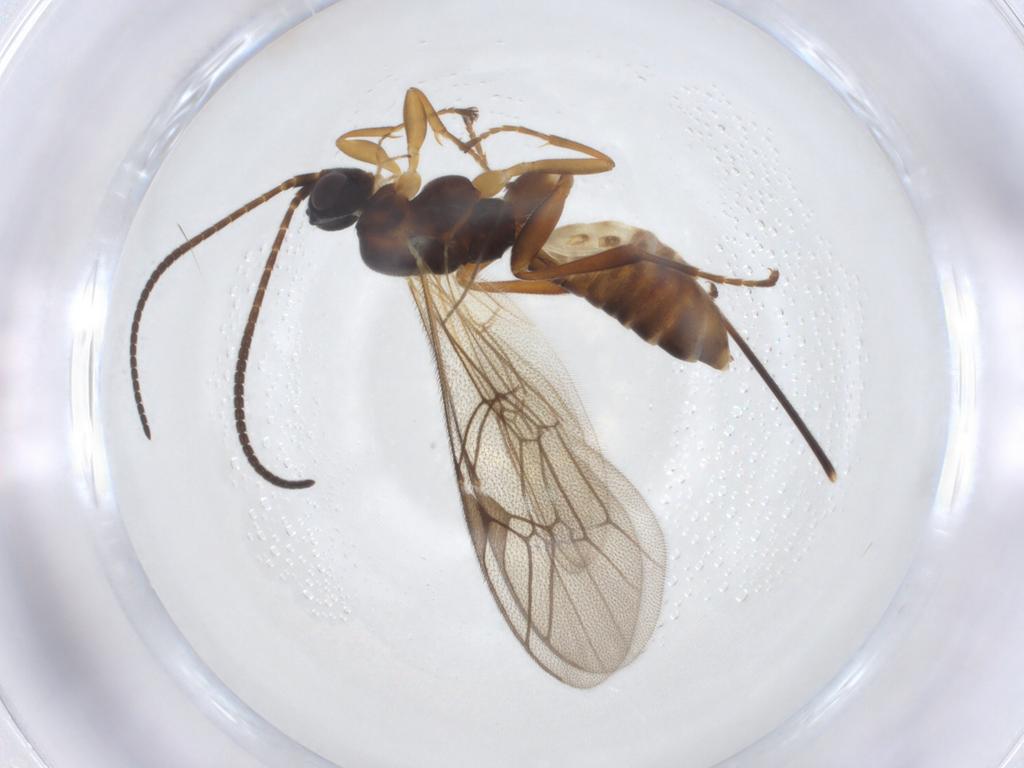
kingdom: Animalia
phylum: Arthropoda
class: Insecta
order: Hymenoptera
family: Ichneumonidae
